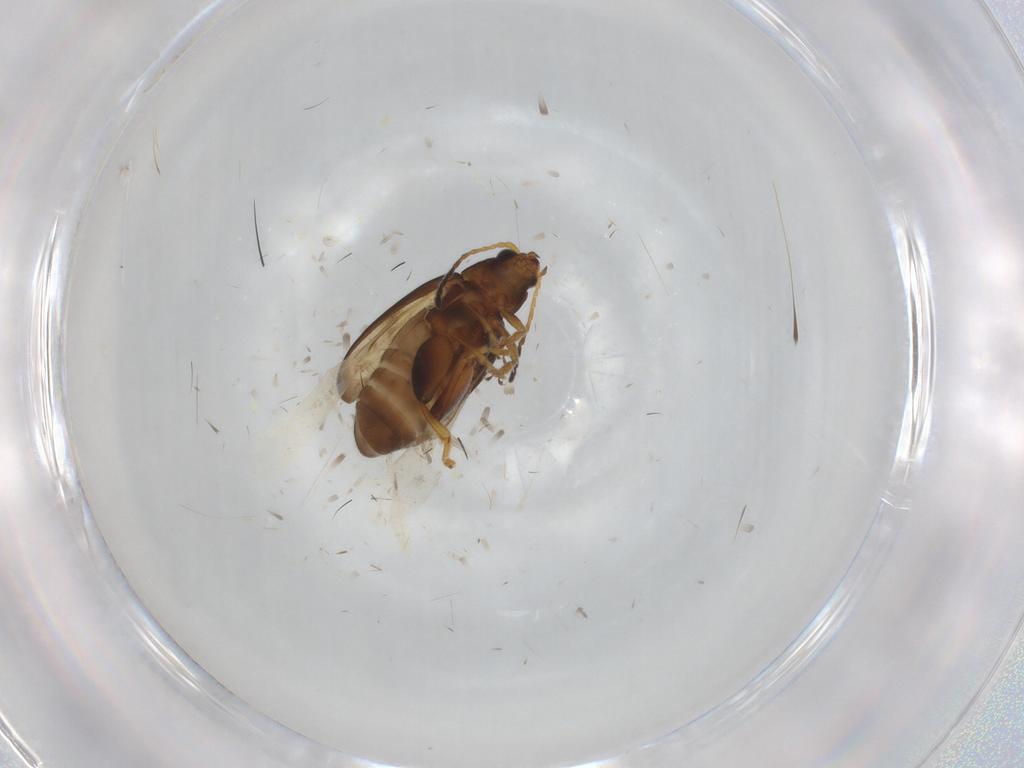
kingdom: Animalia
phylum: Arthropoda
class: Insecta
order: Coleoptera
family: Chrysomelidae
